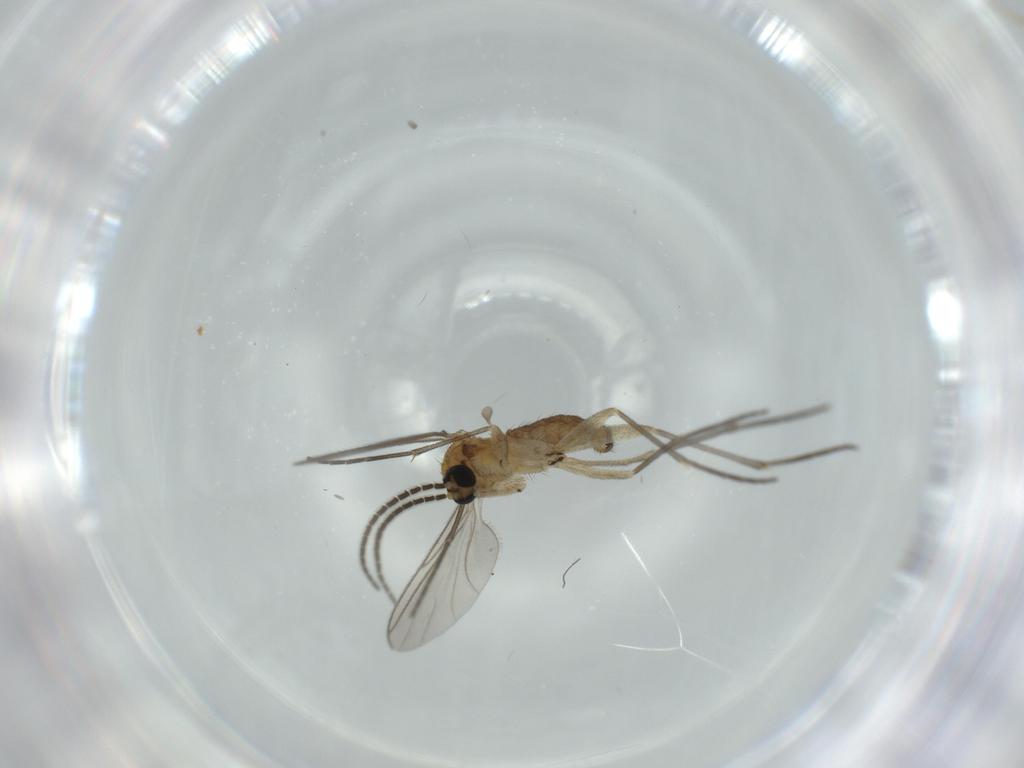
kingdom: Animalia
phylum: Arthropoda
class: Insecta
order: Diptera
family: Sciaridae
